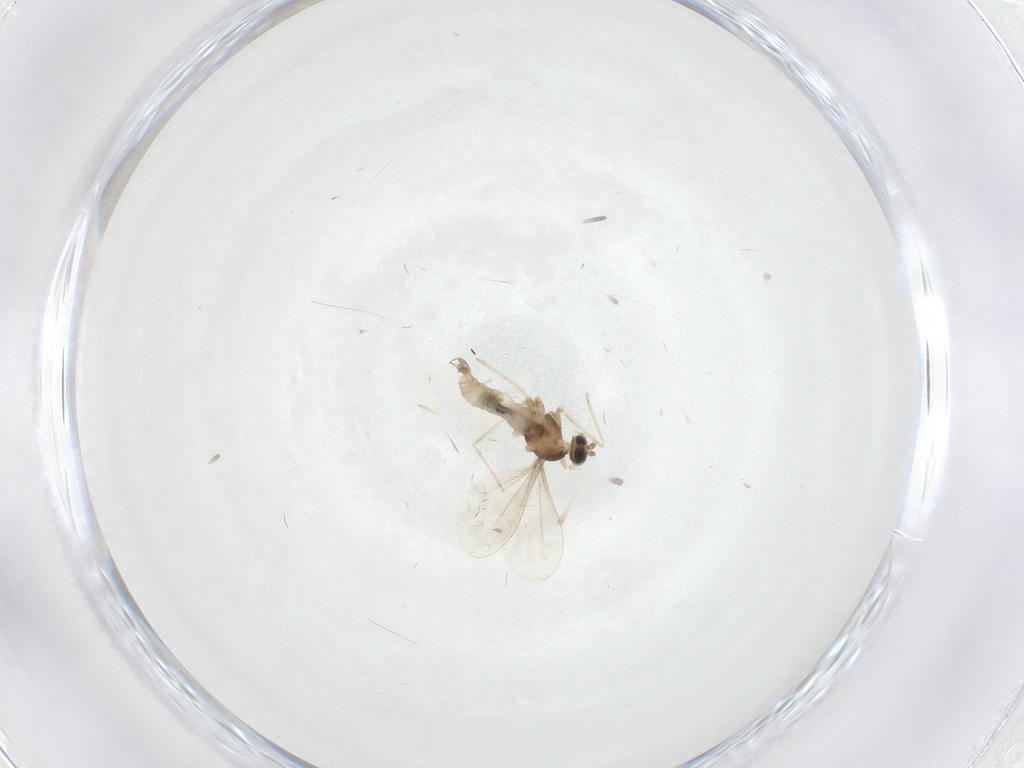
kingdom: Animalia
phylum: Arthropoda
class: Insecta
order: Diptera
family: Cecidomyiidae
